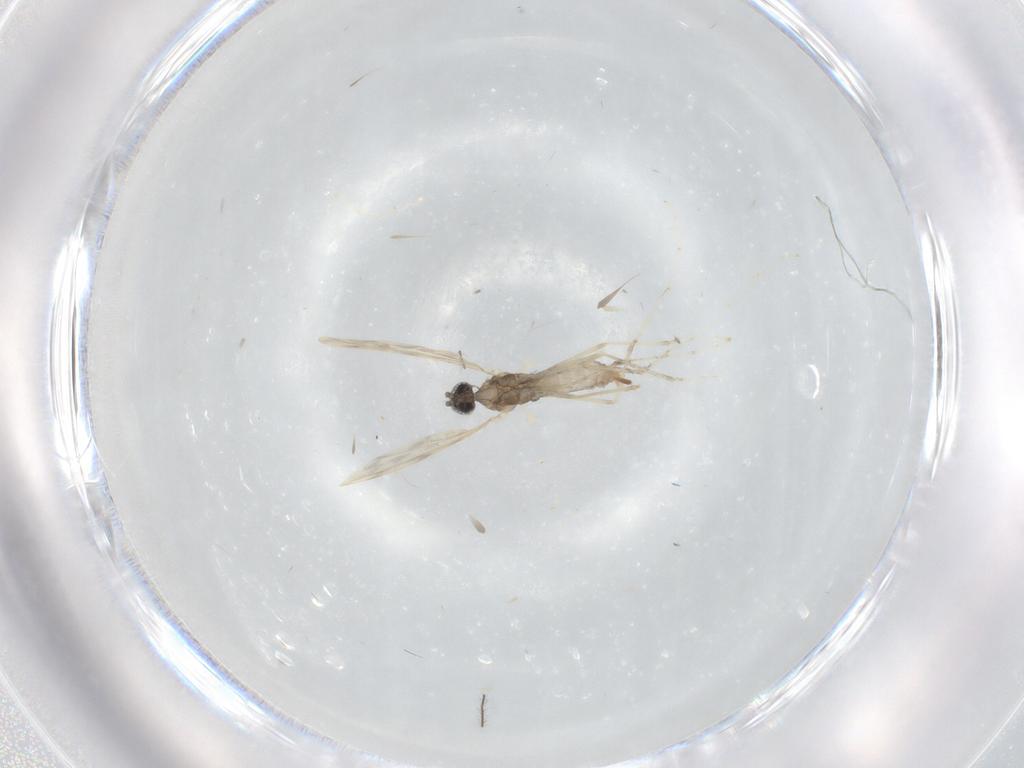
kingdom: Animalia
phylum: Arthropoda
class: Insecta
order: Diptera
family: Cecidomyiidae
